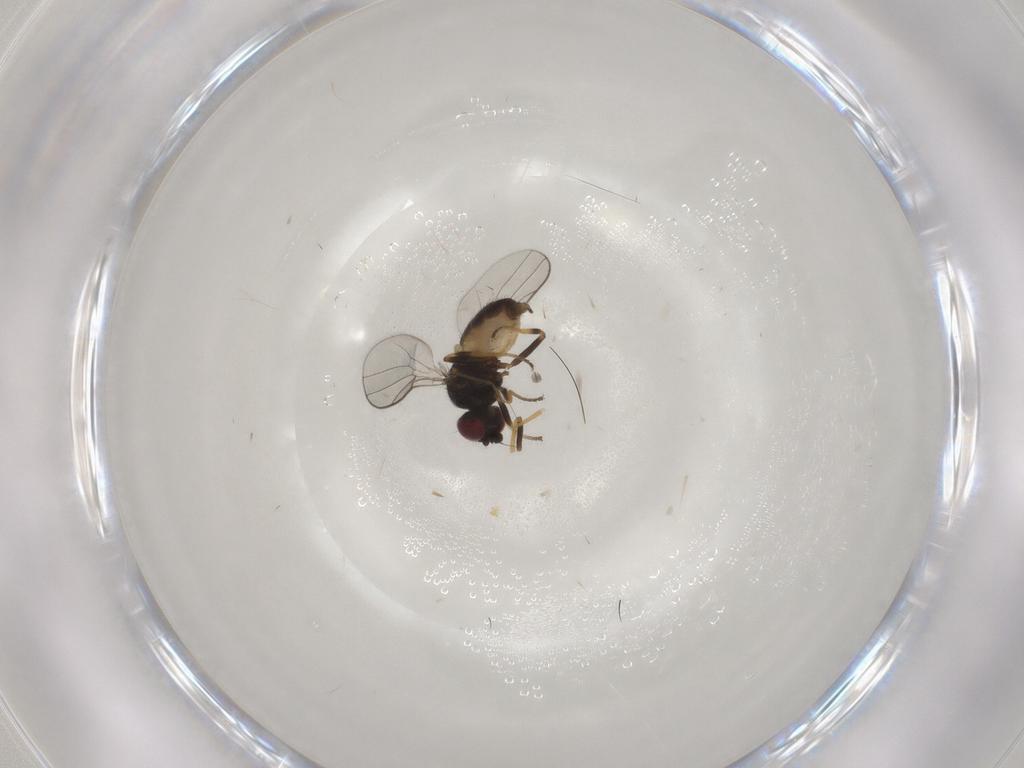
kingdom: Animalia
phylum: Arthropoda
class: Insecta
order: Diptera
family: Chloropidae
